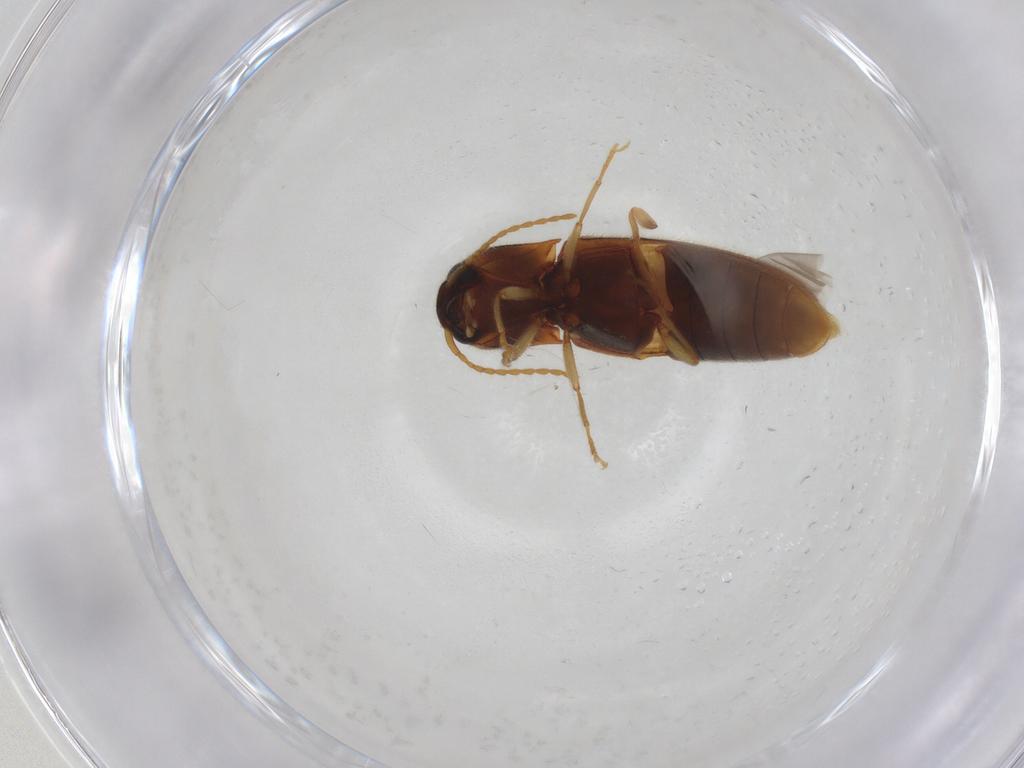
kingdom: Animalia
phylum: Arthropoda
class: Insecta
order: Coleoptera
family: Elateridae
